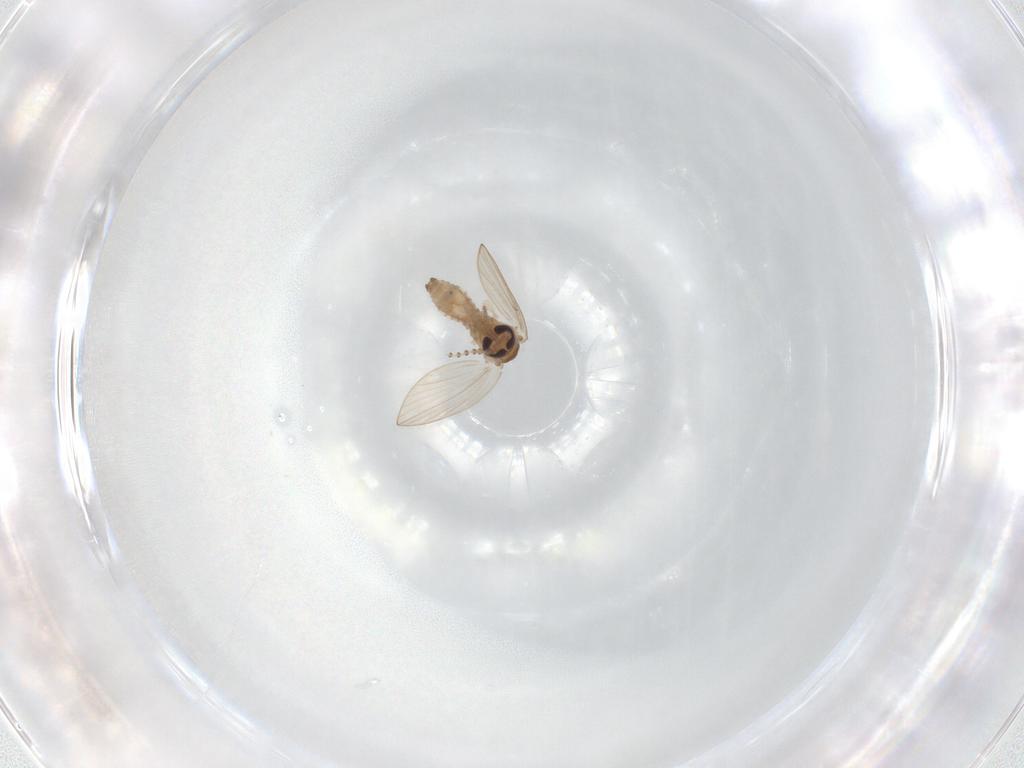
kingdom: Animalia
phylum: Arthropoda
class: Insecta
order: Diptera
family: Psychodidae
